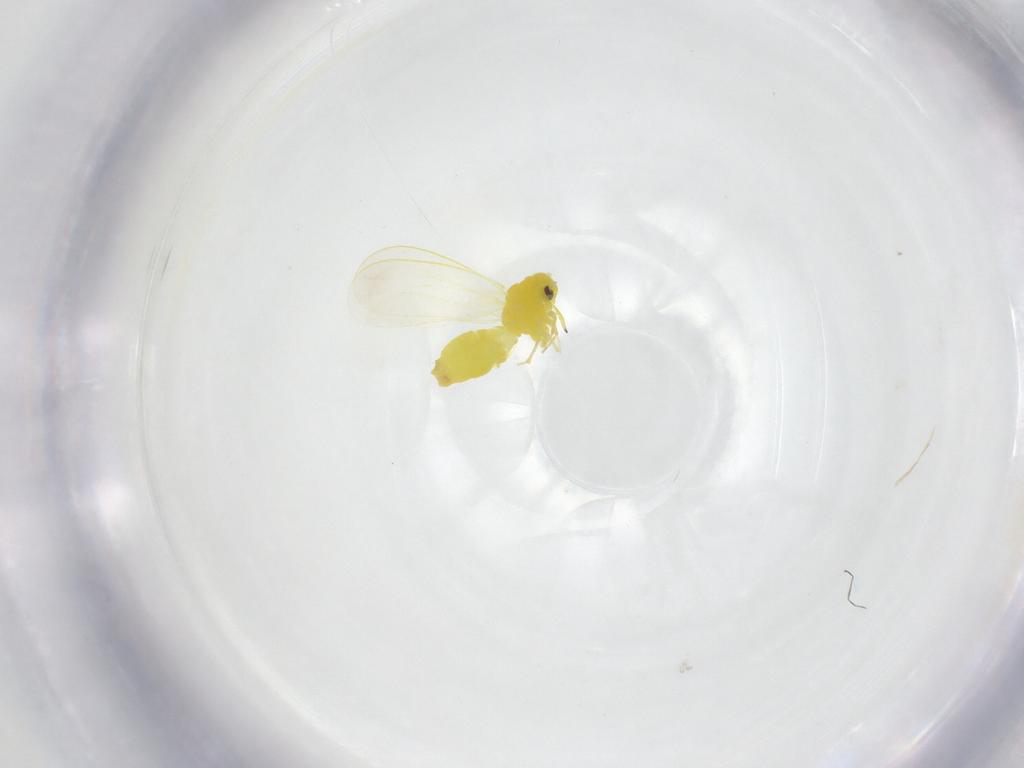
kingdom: Animalia
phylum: Arthropoda
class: Insecta
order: Hemiptera
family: Aleyrodidae
